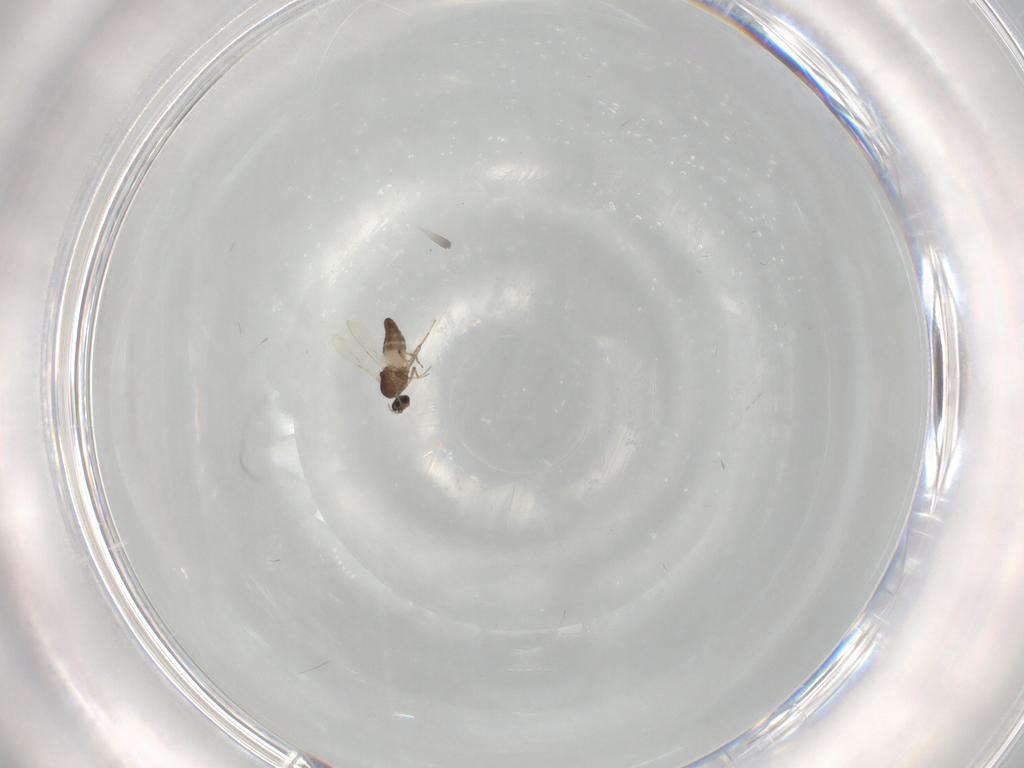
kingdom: Animalia
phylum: Arthropoda
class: Insecta
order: Diptera
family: Ceratopogonidae
